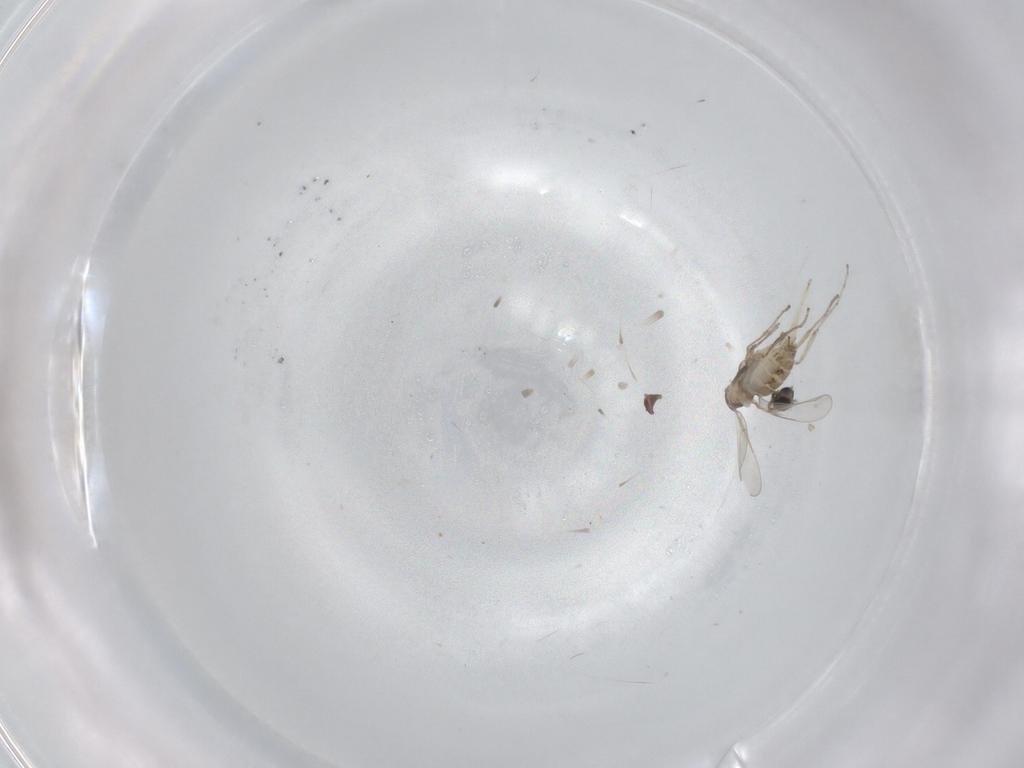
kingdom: Animalia
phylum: Arthropoda
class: Insecta
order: Diptera
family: Cecidomyiidae
